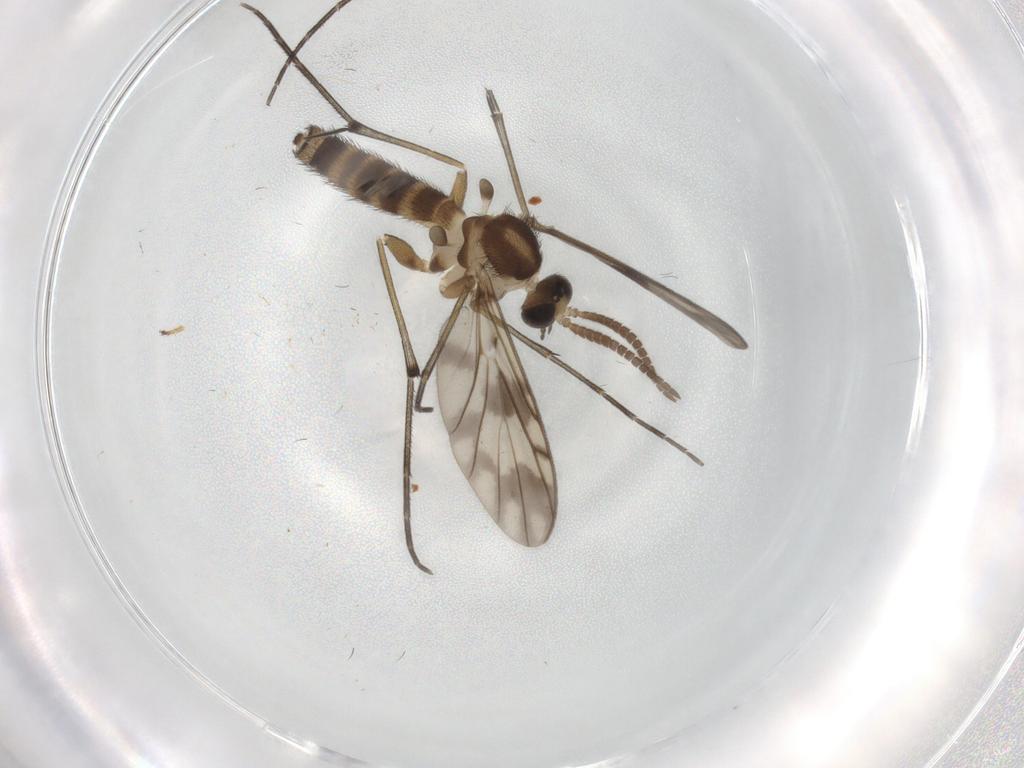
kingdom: Animalia
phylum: Arthropoda
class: Insecta
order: Diptera
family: Keroplatidae
